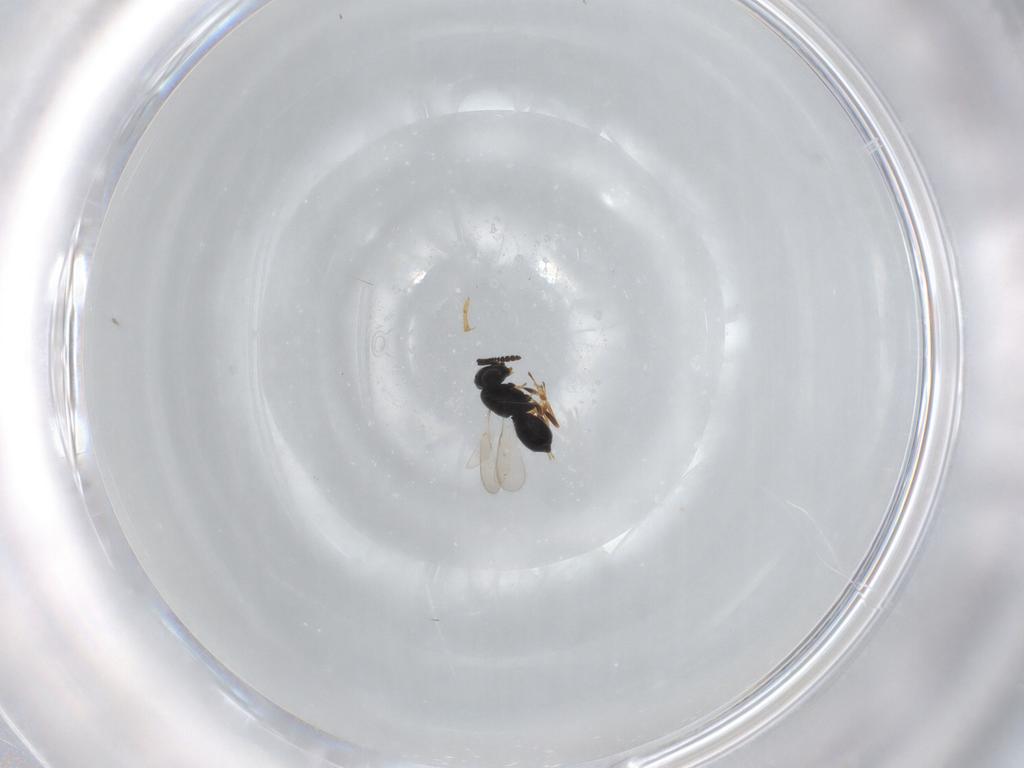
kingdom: Animalia
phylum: Arthropoda
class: Insecta
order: Hymenoptera
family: Scelionidae
